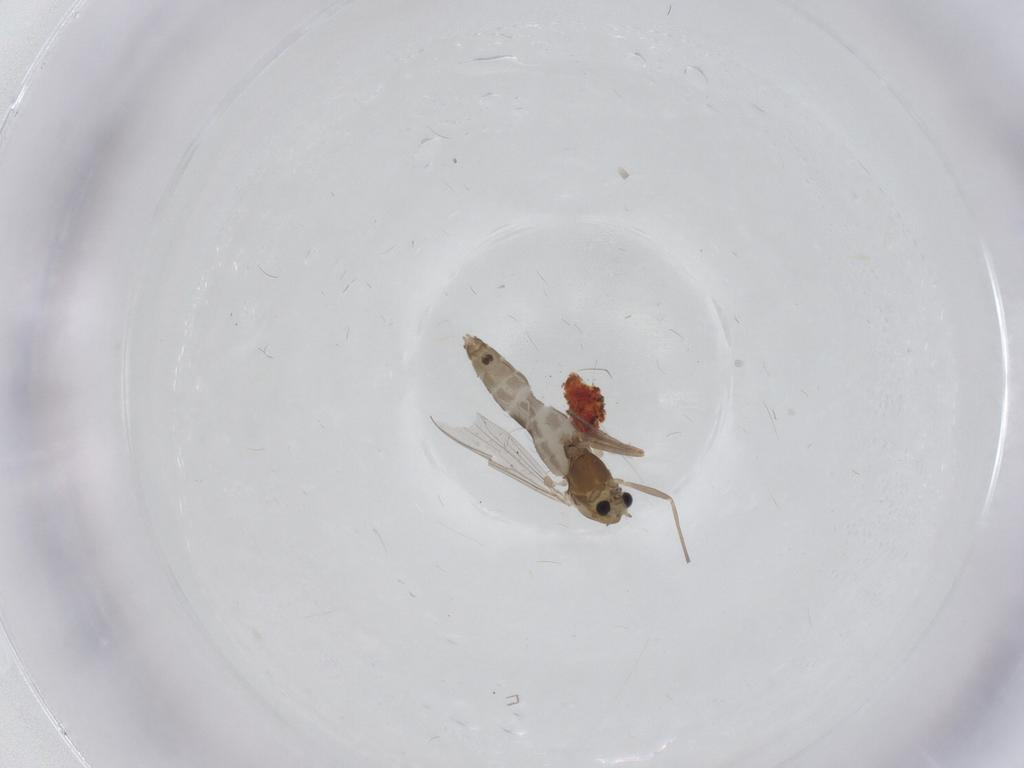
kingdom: Animalia
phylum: Arthropoda
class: Insecta
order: Diptera
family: Chironomidae
